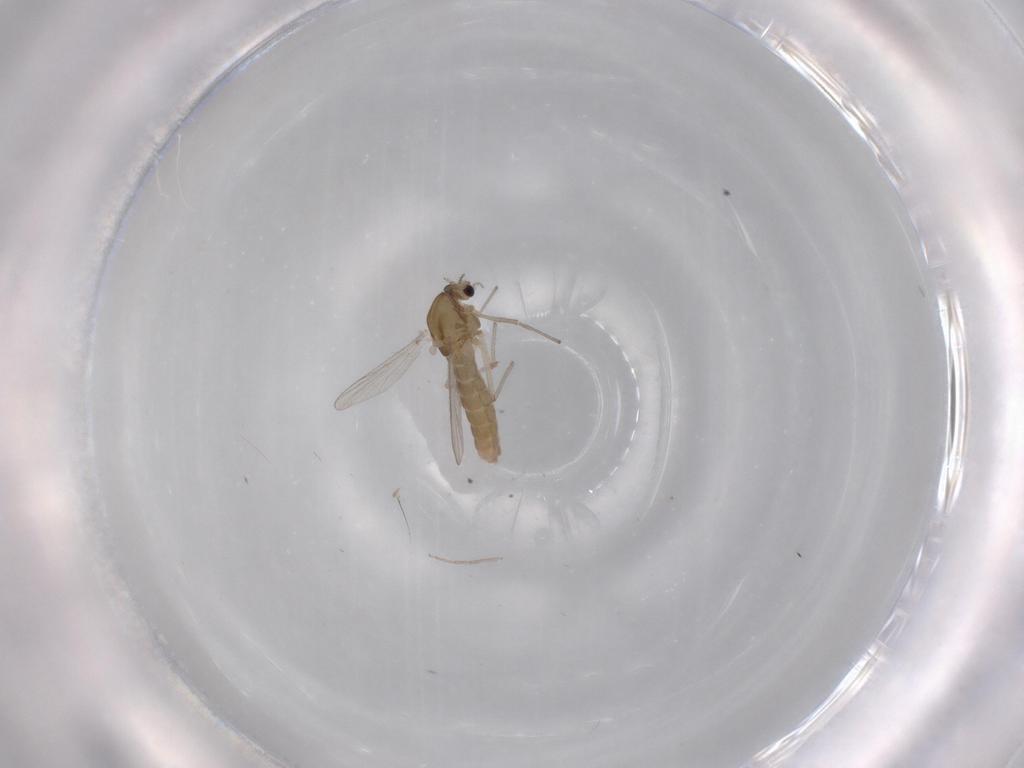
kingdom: Animalia
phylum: Arthropoda
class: Insecta
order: Diptera
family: Chironomidae
